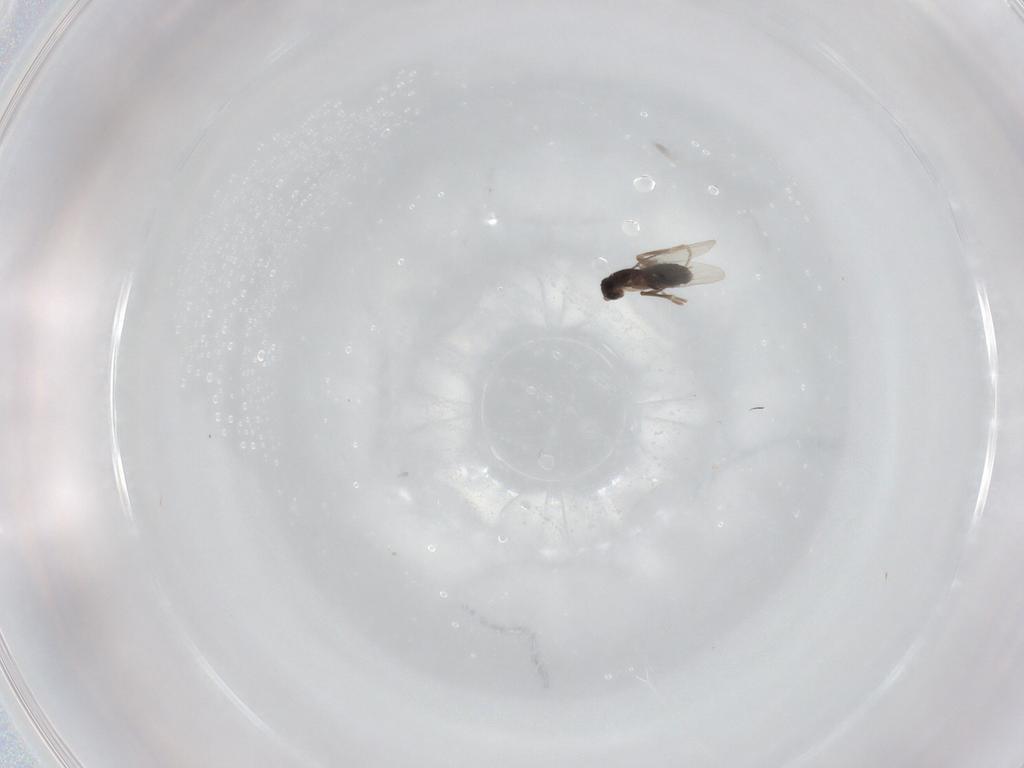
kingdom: Animalia
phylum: Arthropoda
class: Insecta
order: Diptera
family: Phoridae
